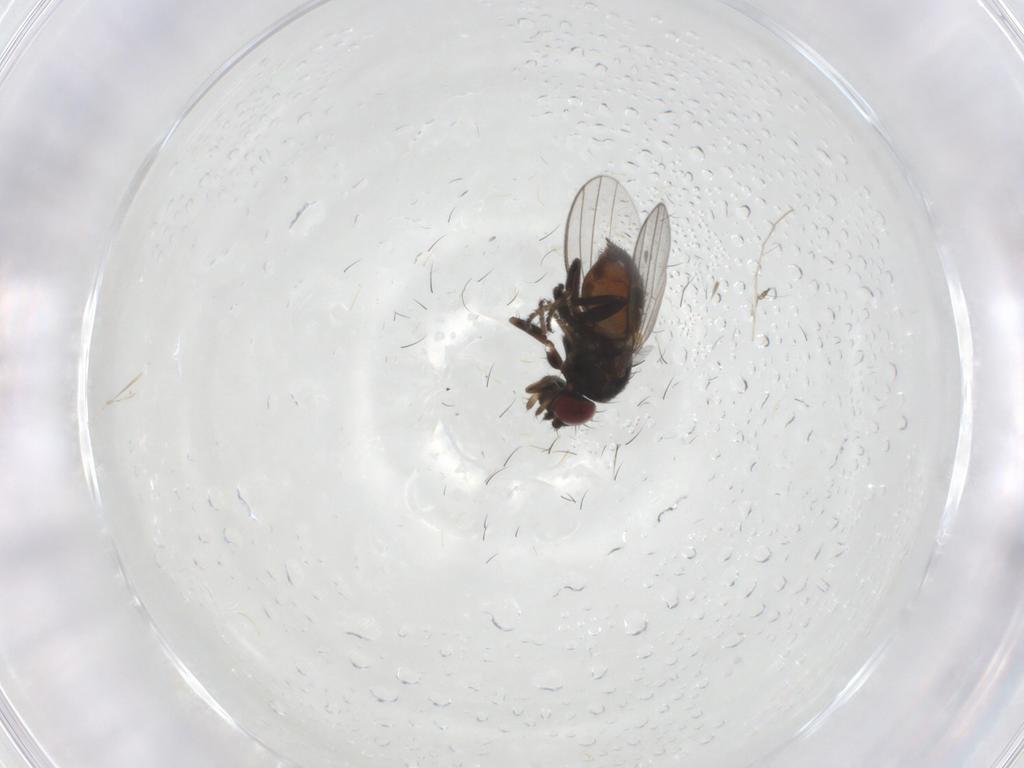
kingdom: Animalia
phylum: Arthropoda
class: Insecta
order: Diptera
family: Milichiidae
